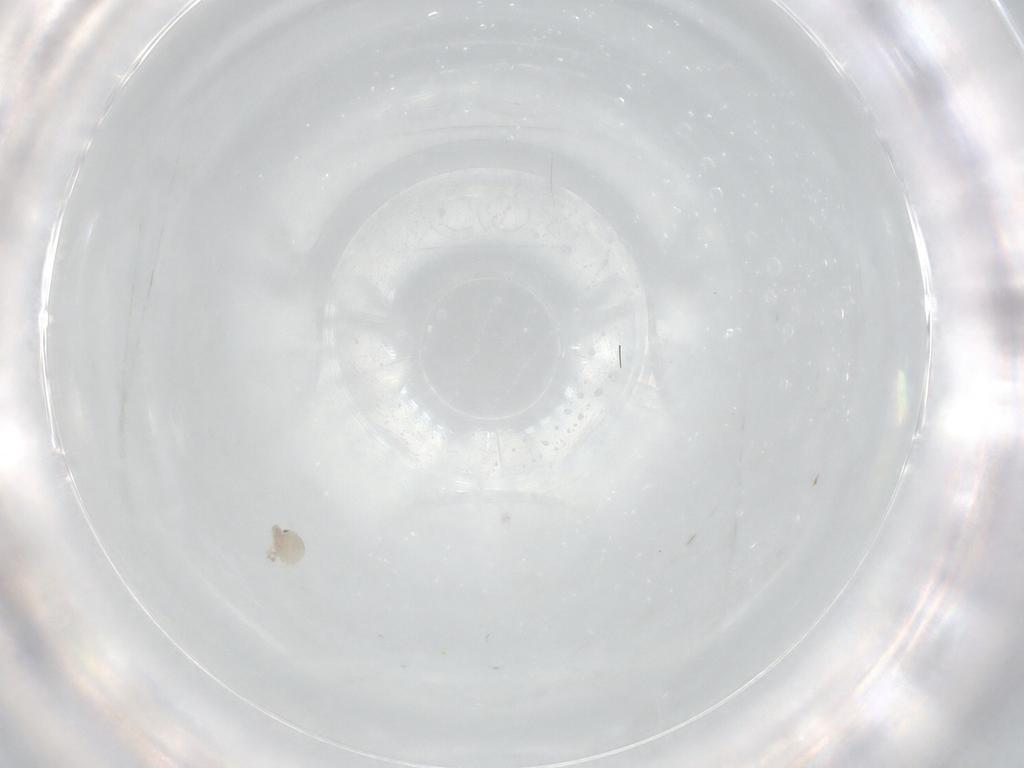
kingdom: Animalia
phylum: Arthropoda
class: Arachnida
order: Trombidiformes
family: Lebertiidae
